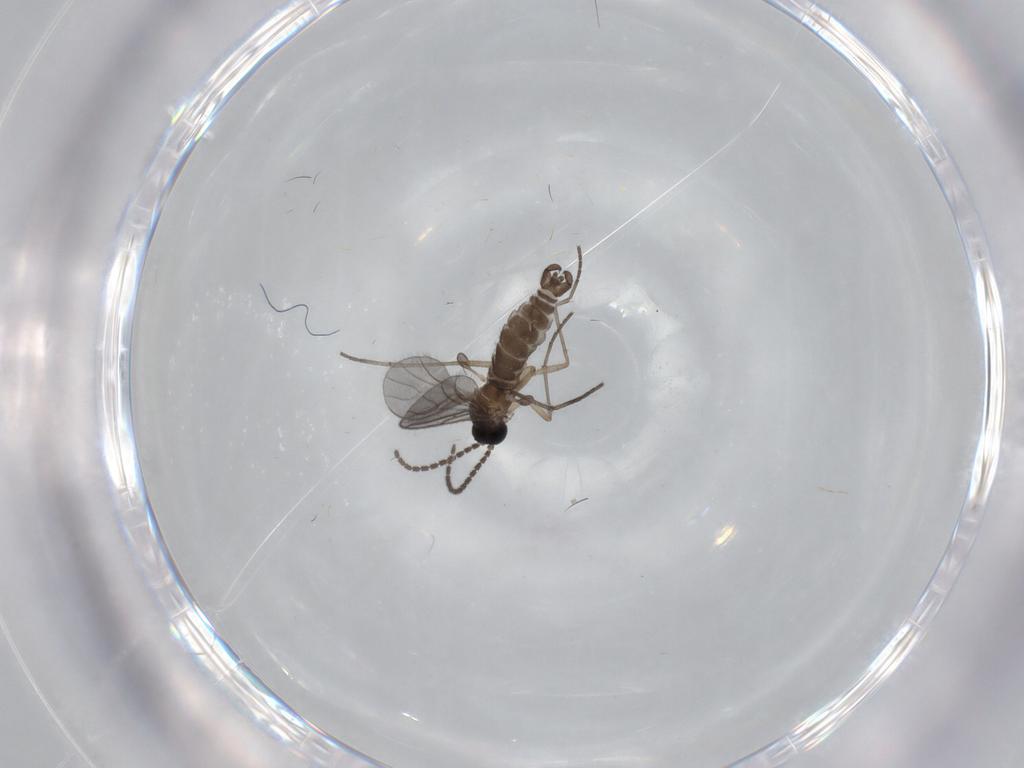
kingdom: Animalia
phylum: Arthropoda
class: Insecta
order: Diptera
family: Sciaridae
